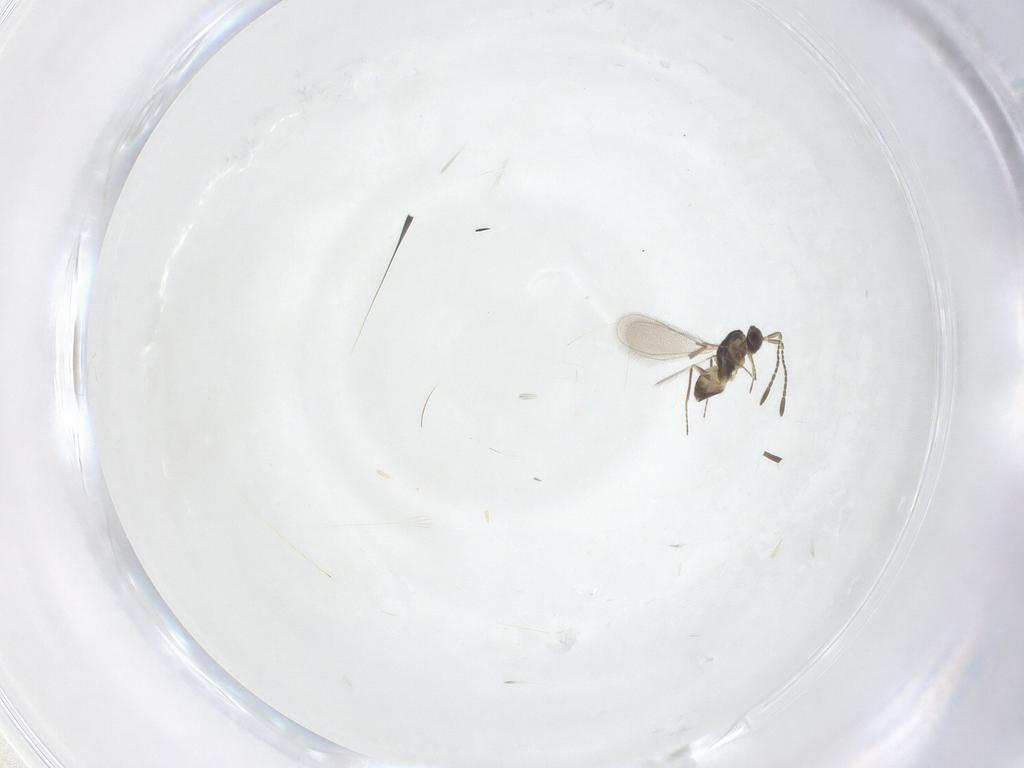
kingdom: Animalia
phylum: Arthropoda
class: Insecta
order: Hymenoptera
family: Mymaridae
